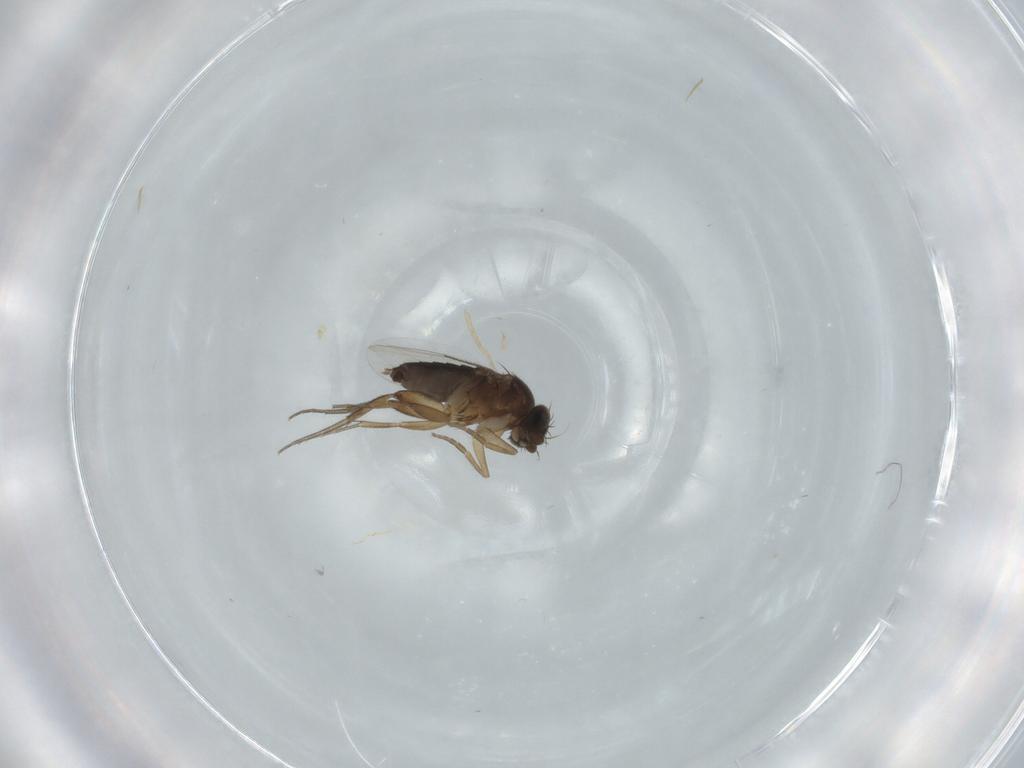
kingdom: Animalia
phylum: Arthropoda
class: Insecta
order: Diptera
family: Phoridae
